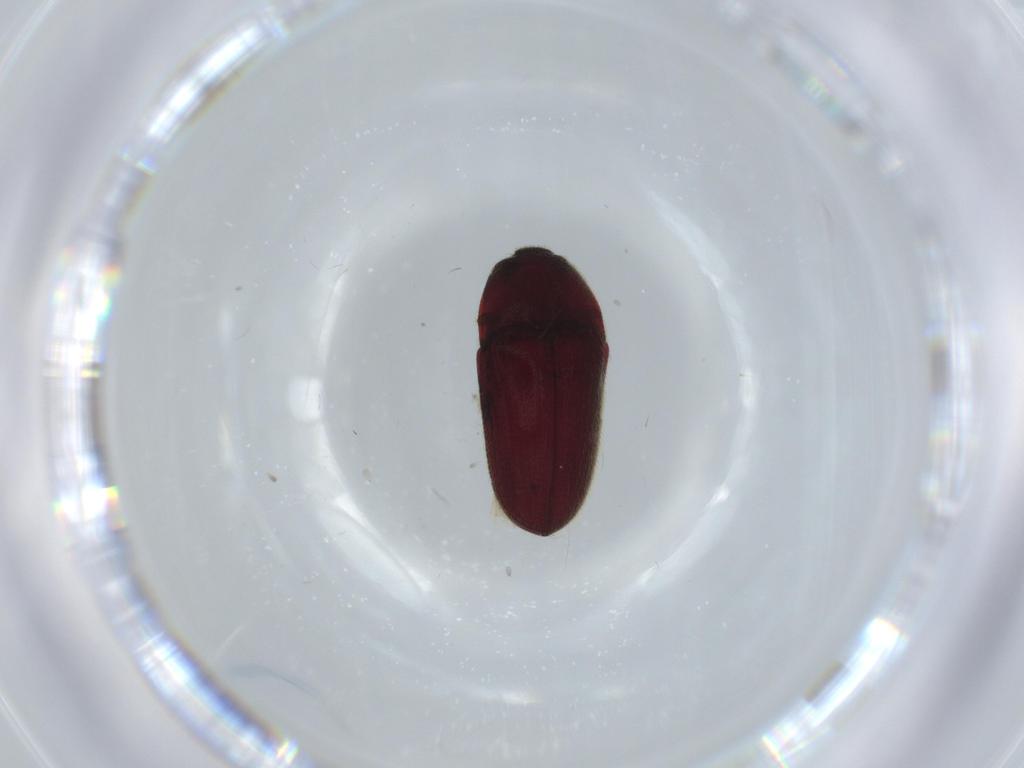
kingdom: Animalia
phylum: Arthropoda
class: Insecta
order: Coleoptera
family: Throscidae
